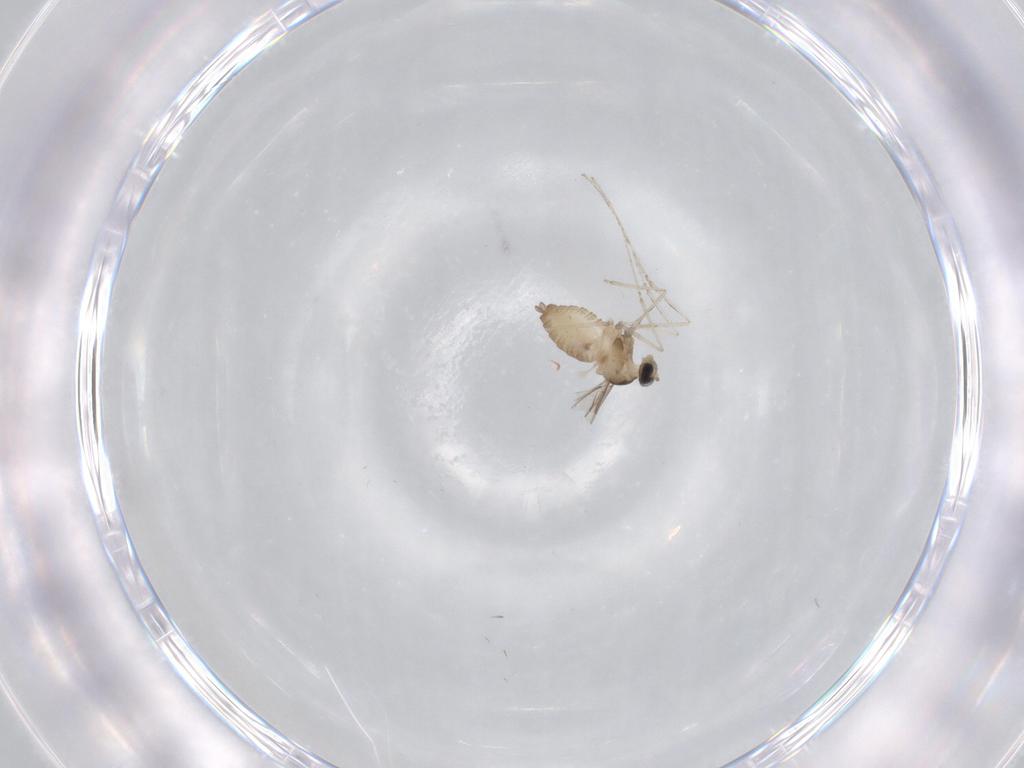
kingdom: Animalia
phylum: Arthropoda
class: Insecta
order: Diptera
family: Cecidomyiidae
